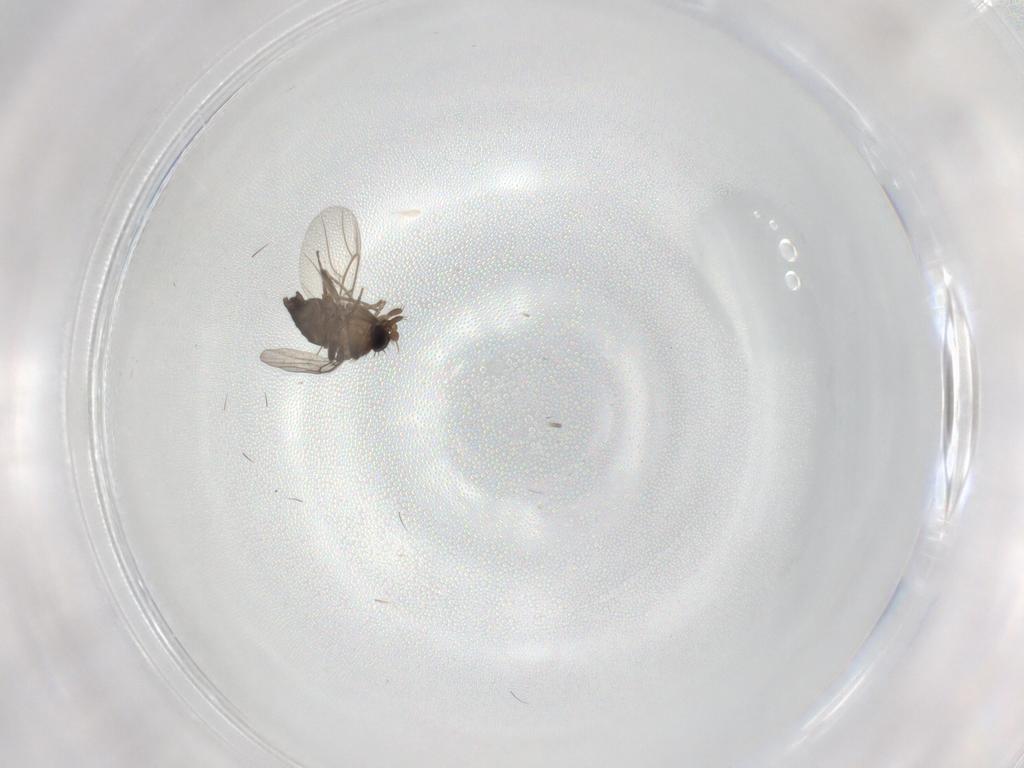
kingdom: Animalia
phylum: Arthropoda
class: Insecta
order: Diptera
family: Phoridae
